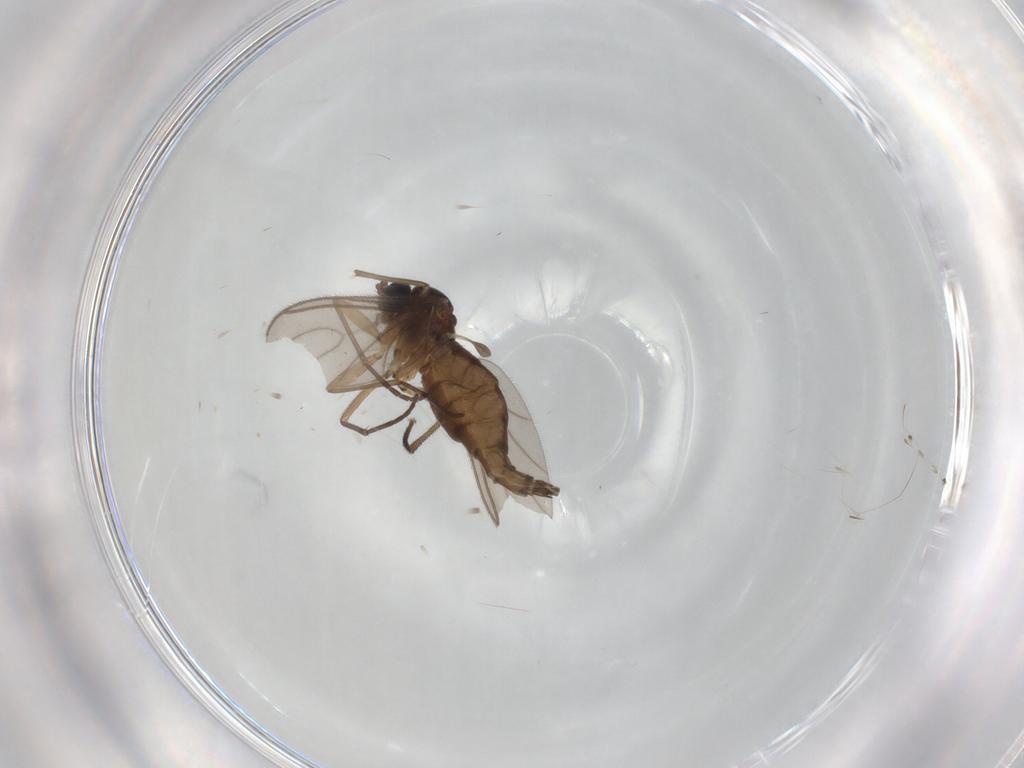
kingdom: Animalia
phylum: Arthropoda
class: Insecta
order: Diptera
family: Sciaridae
